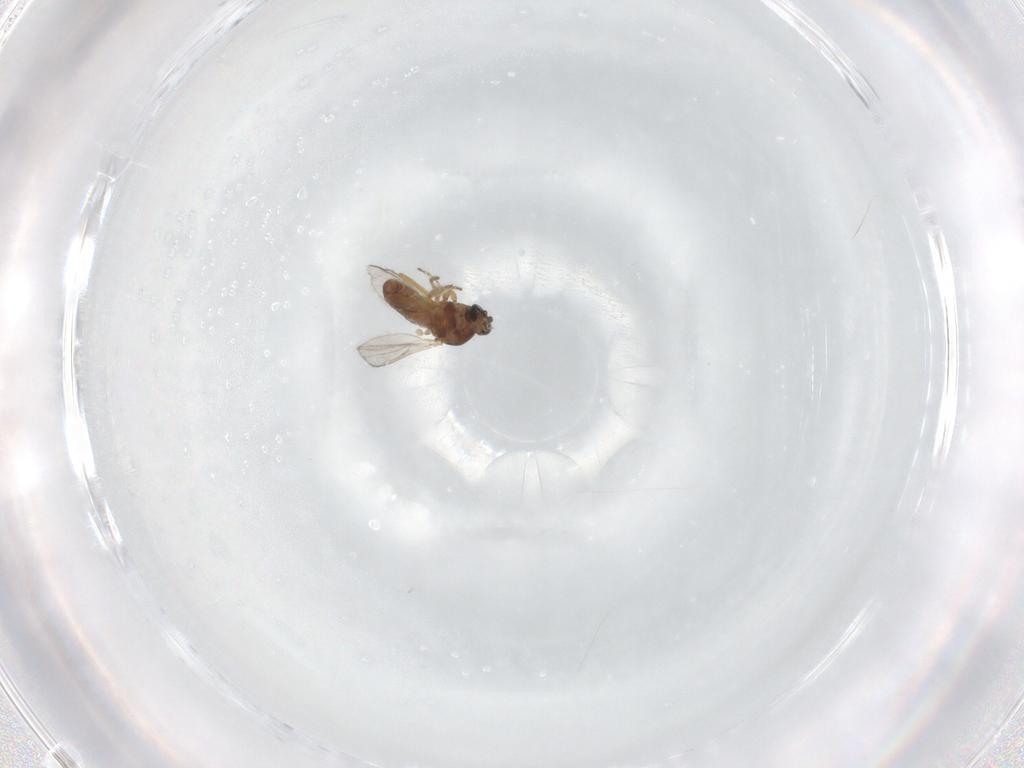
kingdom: Animalia
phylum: Arthropoda
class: Insecta
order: Diptera
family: Ceratopogonidae
